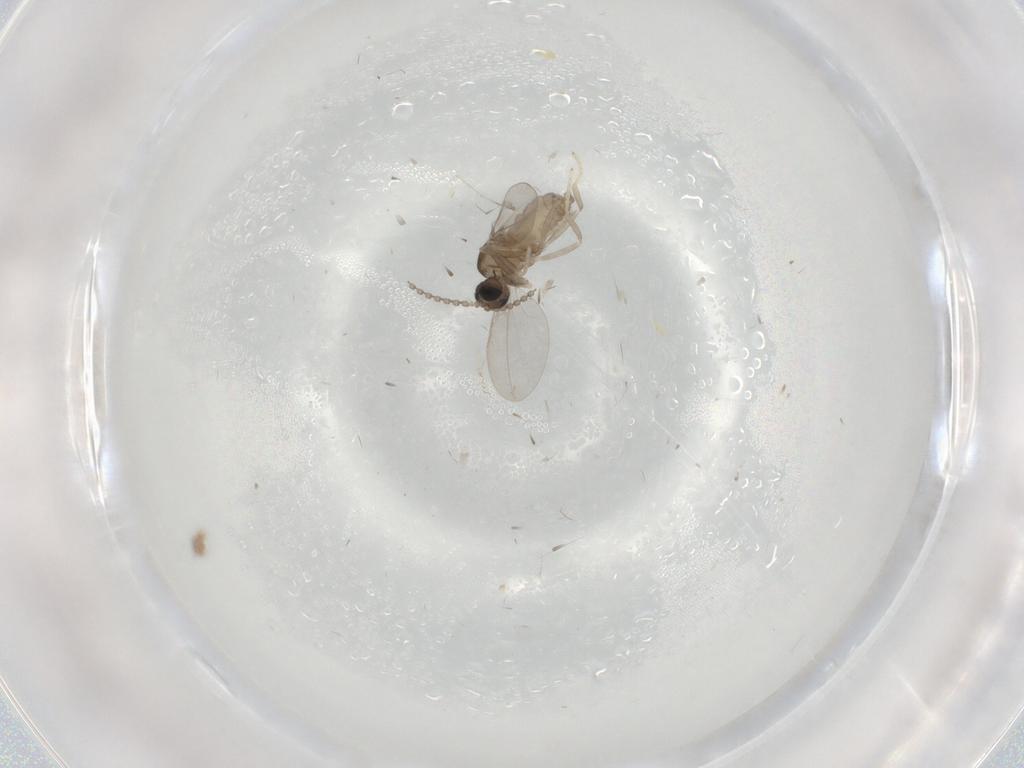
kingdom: Animalia
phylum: Arthropoda
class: Insecta
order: Diptera
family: Cecidomyiidae
